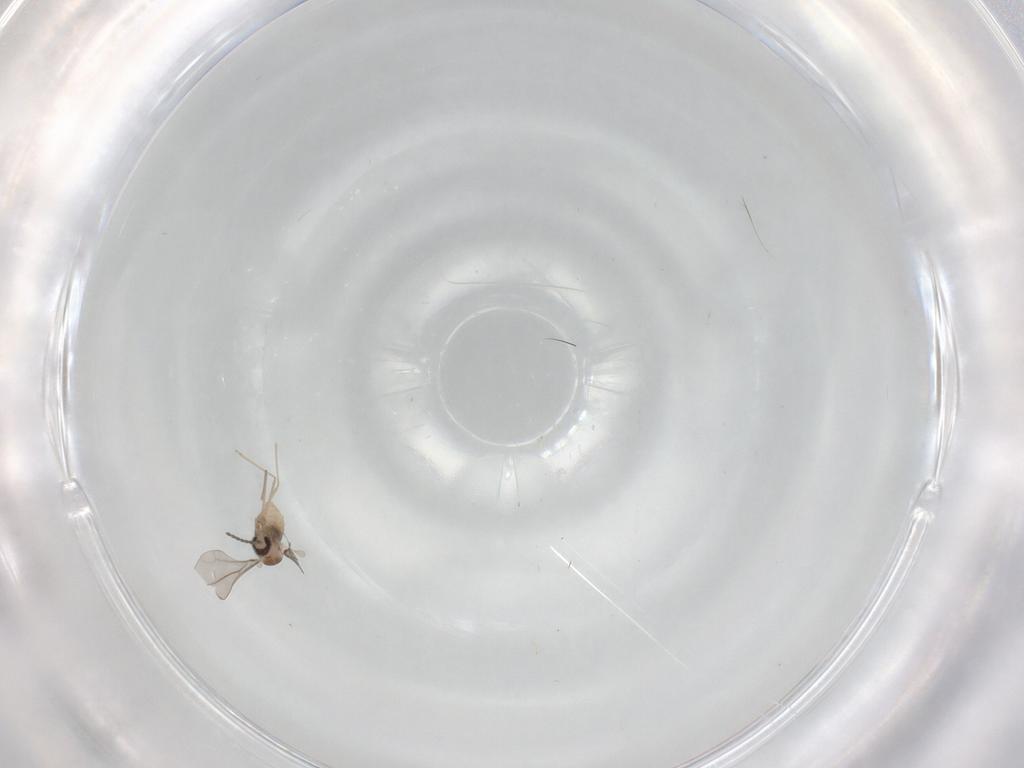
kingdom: Animalia
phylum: Arthropoda
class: Insecta
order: Diptera
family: Cecidomyiidae
